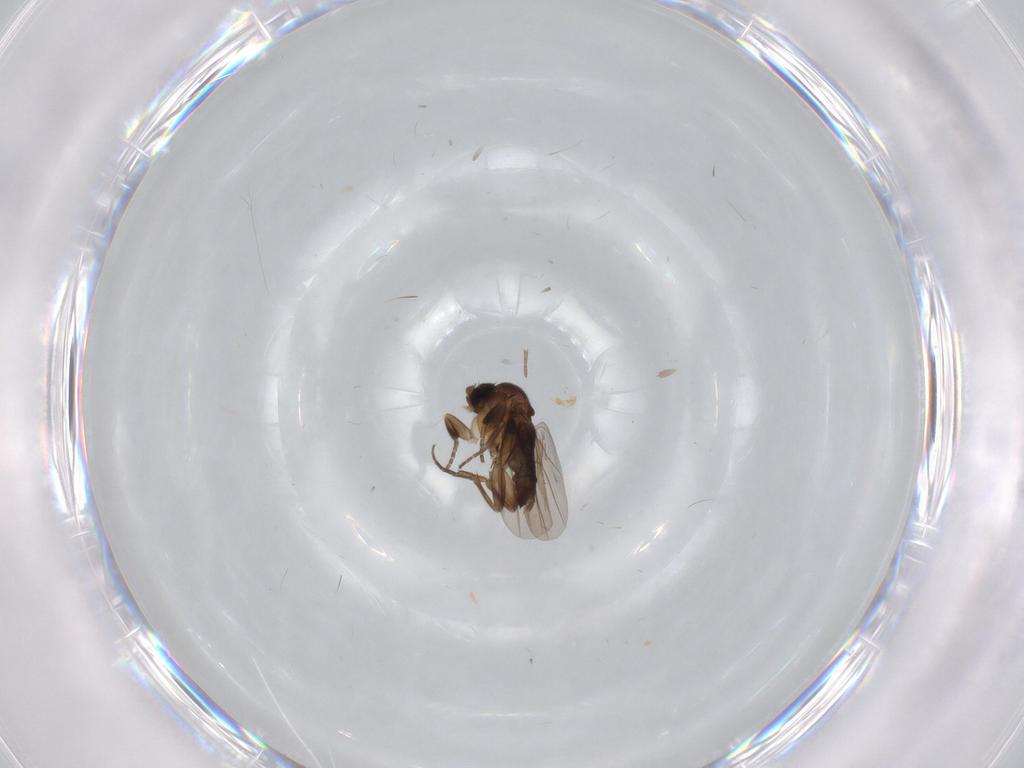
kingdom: Animalia
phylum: Arthropoda
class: Insecta
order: Diptera
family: Phoridae
